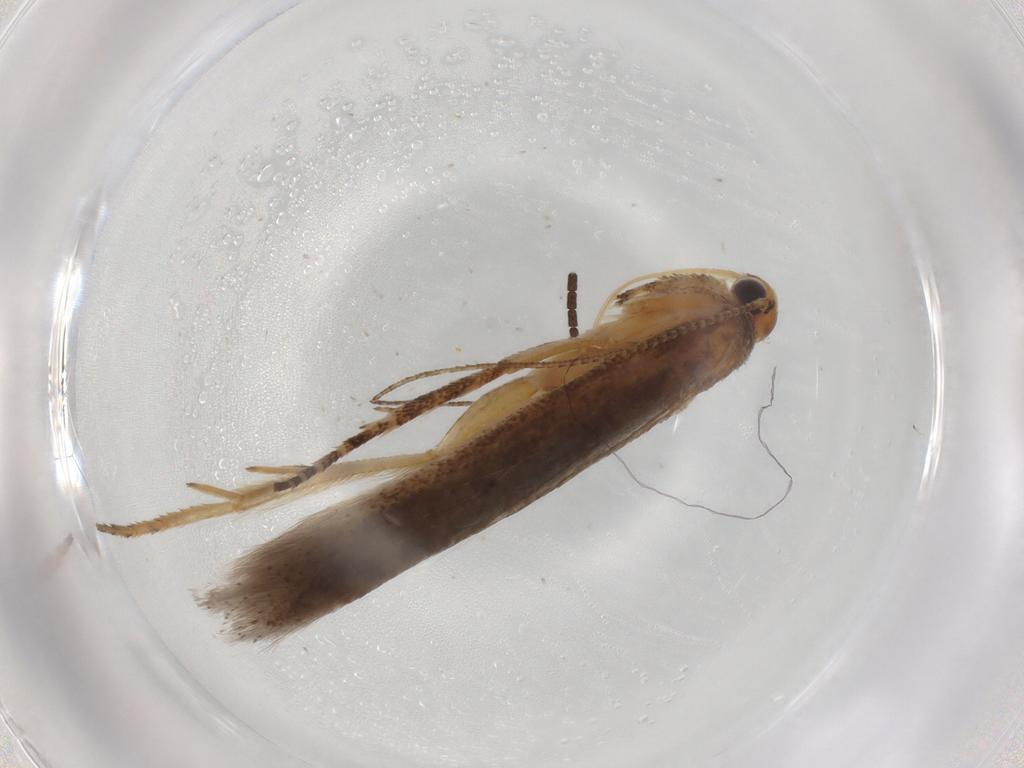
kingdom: Animalia
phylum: Arthropoda
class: Insecta
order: Lepidoptera
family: Gelechiidae
